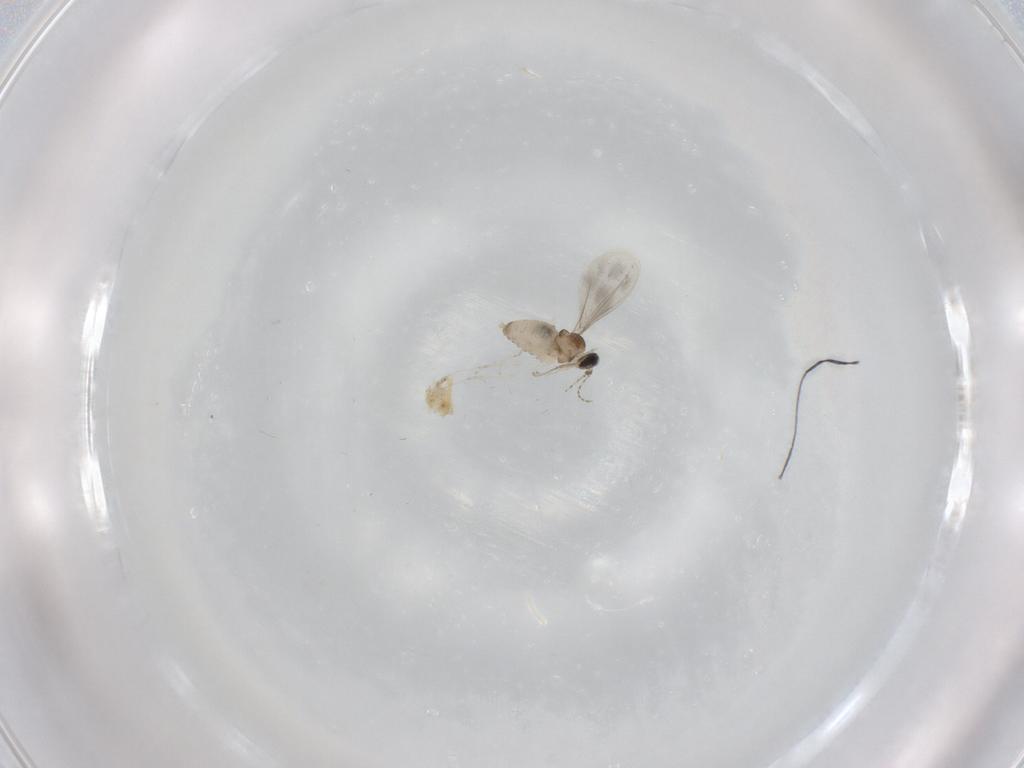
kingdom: Animalia
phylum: Arthropoda
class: Insecta
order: Diptera
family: Cecidomyiidae
